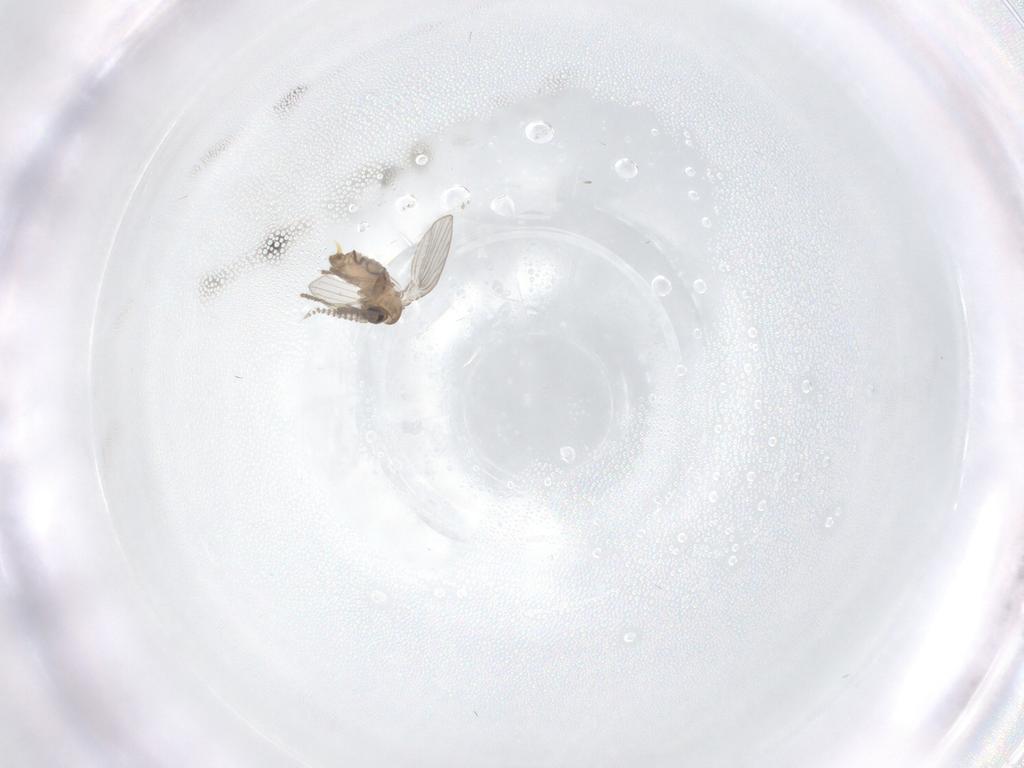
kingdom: Animalia
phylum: Arthropoda
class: Insecta
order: Diptera
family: Psychodidae
